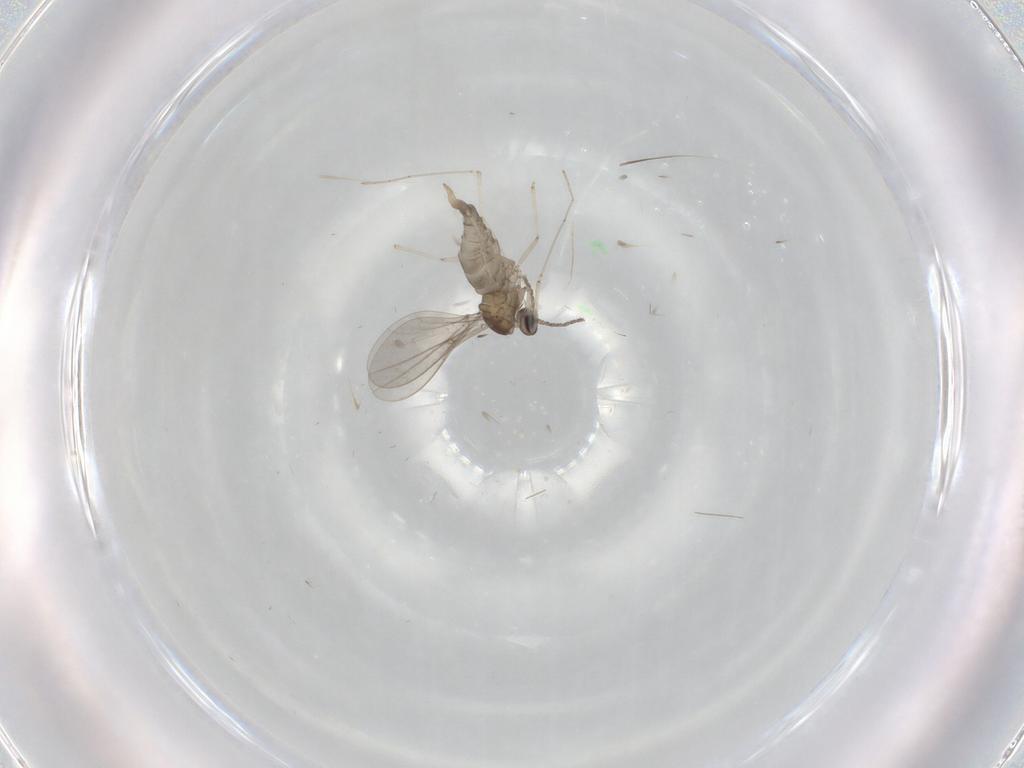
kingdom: Animalia
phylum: Arthropoda
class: Insecta
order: Diptera
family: Cecidomyiidae
